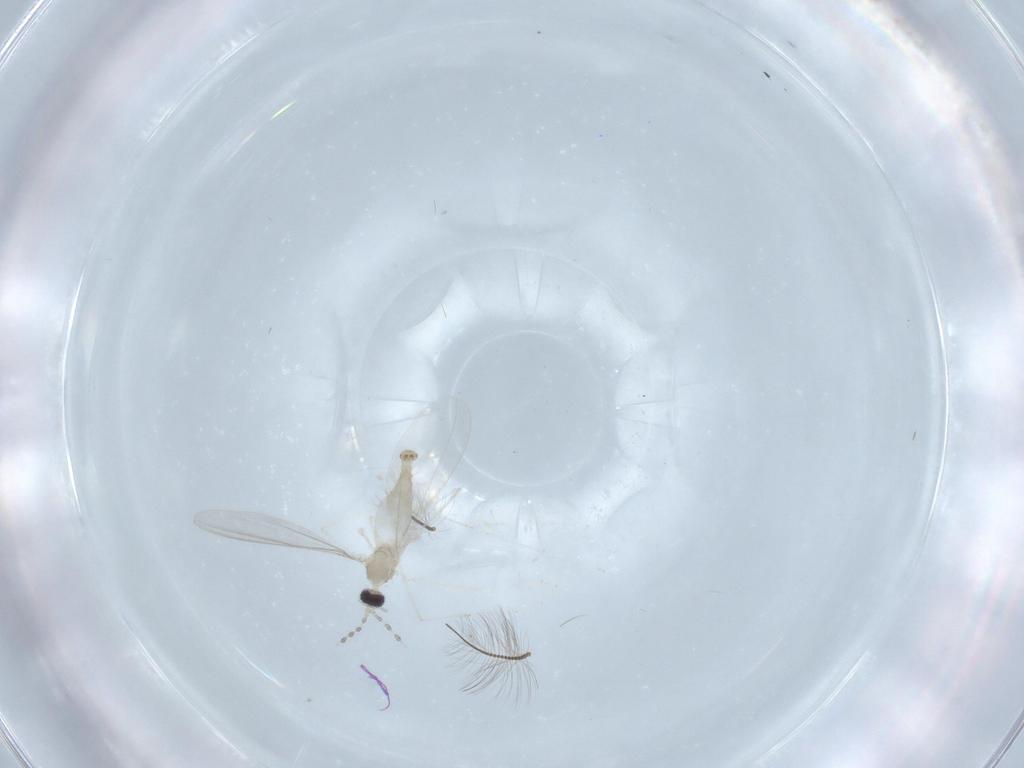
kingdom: Animalia
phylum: Arthropoda
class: Insecta
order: Diptera
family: Cecidomyiidae
